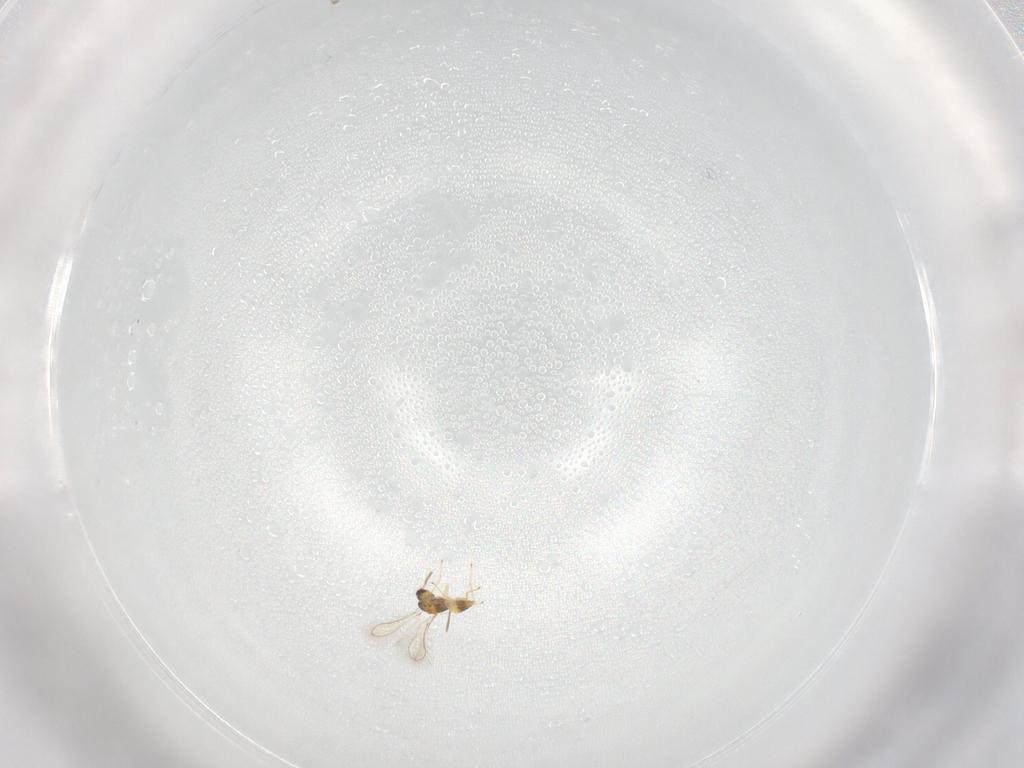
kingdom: Animalia
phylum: Arthropoda
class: Insecta
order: Hymenoptera
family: Mymaridae
